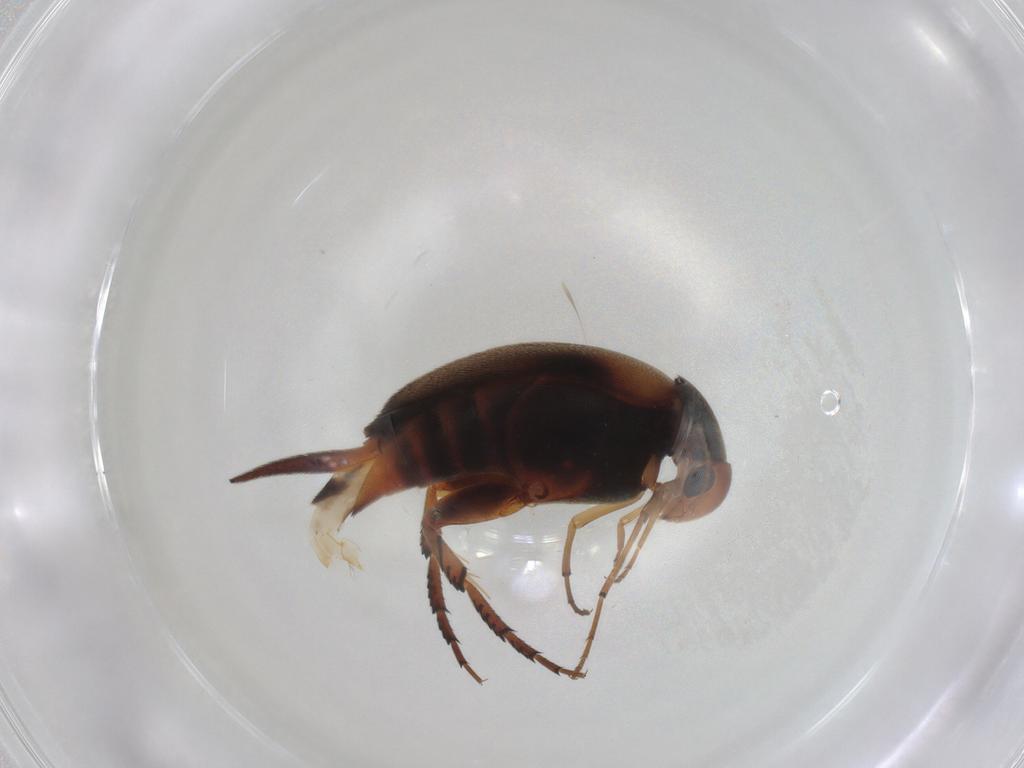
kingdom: Animalia
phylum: Arthropoda
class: Insecta
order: Coleoptera
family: Mordellidae
